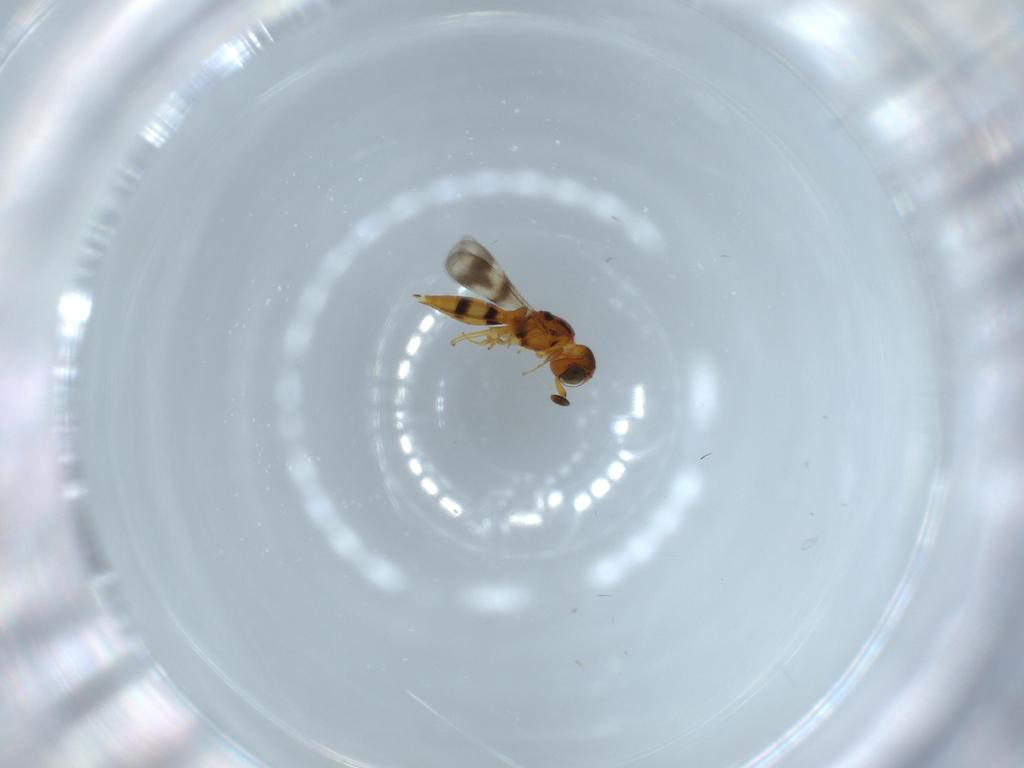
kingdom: Animalia
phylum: Arthropoda
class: Insecta
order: Hymenoptera
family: Scelionidae
